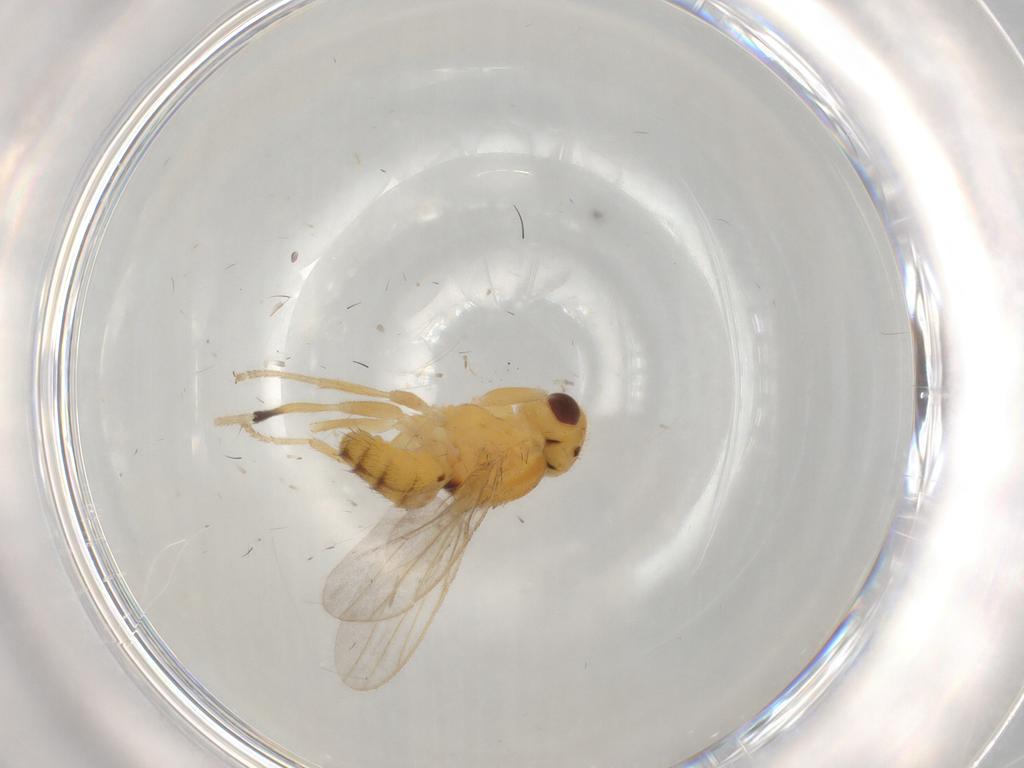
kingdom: Animalia
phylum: Arthropoda
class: Insecta
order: Diptera
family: Chloropidae
